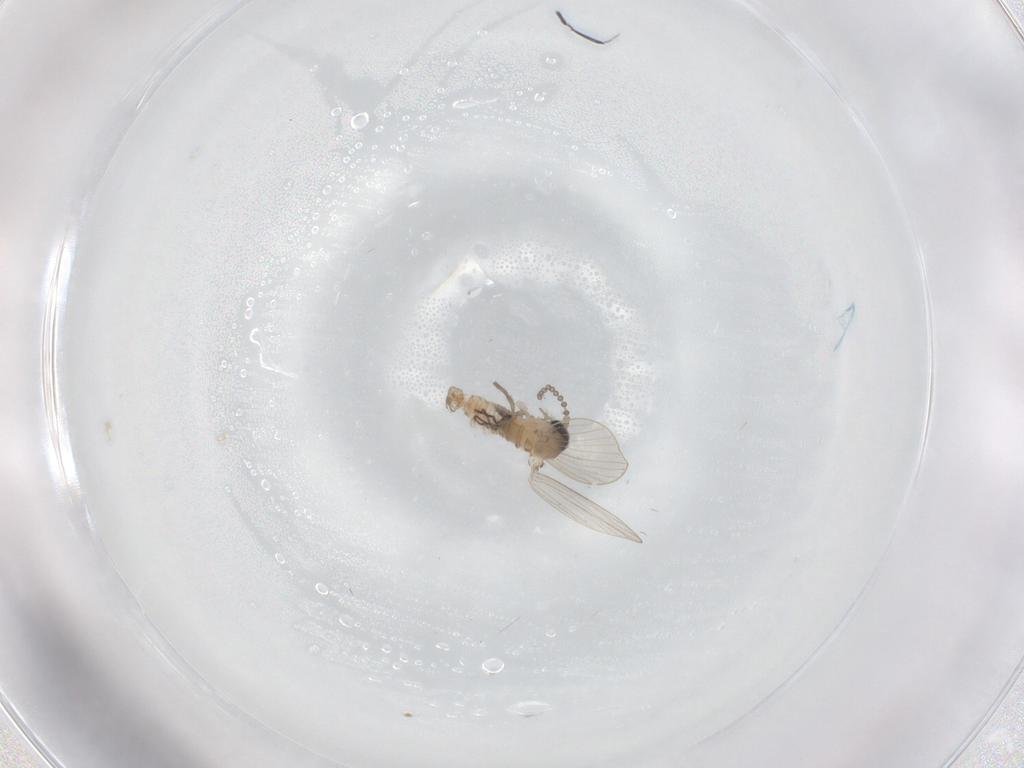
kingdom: Animalia
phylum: Arthropoda
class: Insecta
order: Diptera
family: Psychodidae
